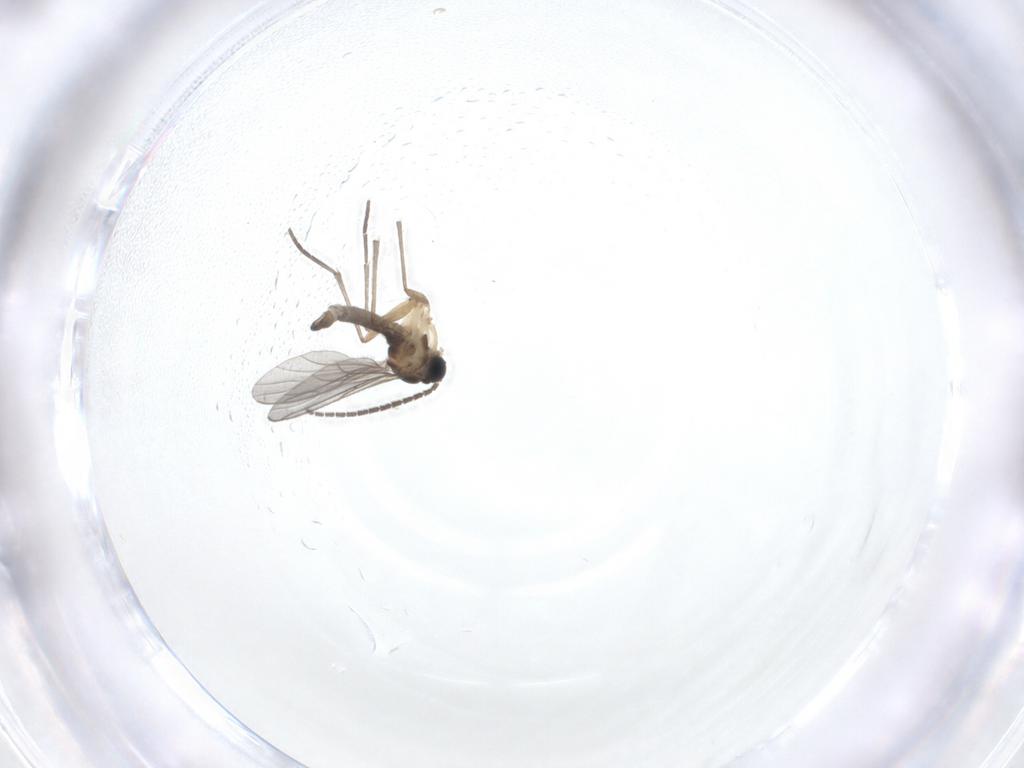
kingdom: Animalia
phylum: Arthropoda
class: Insecta
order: Diptera
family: Sciaridae
